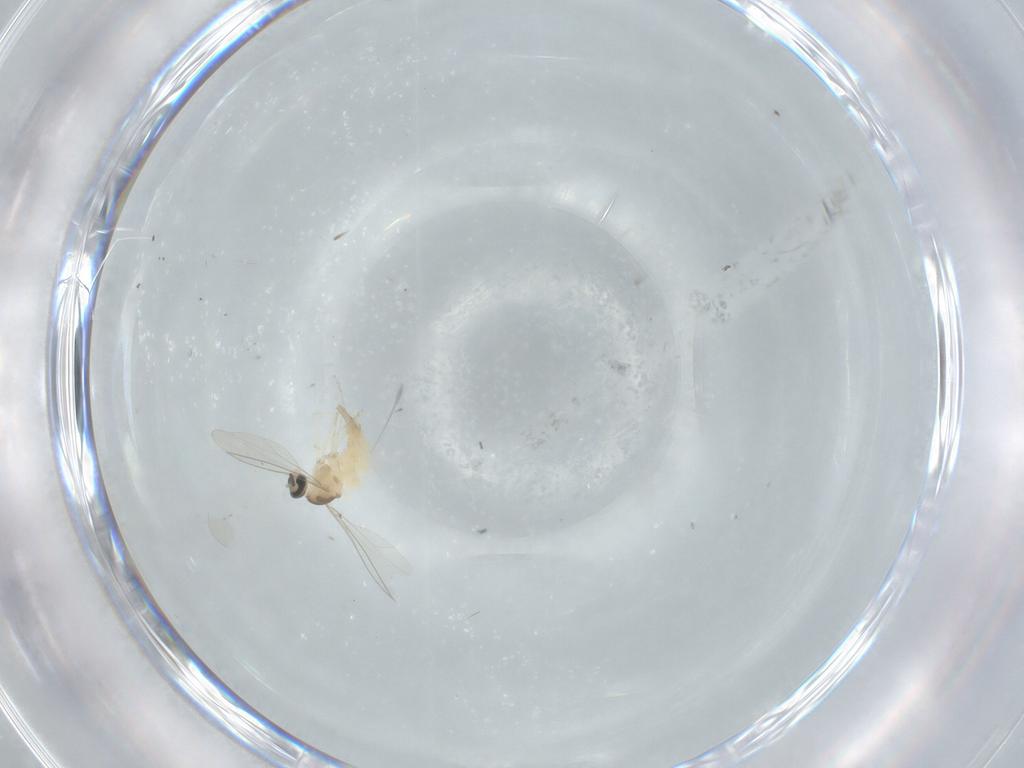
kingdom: Animalia
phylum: Arthropoda
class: Insecta
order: Diptera
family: Cecidomyiidae
